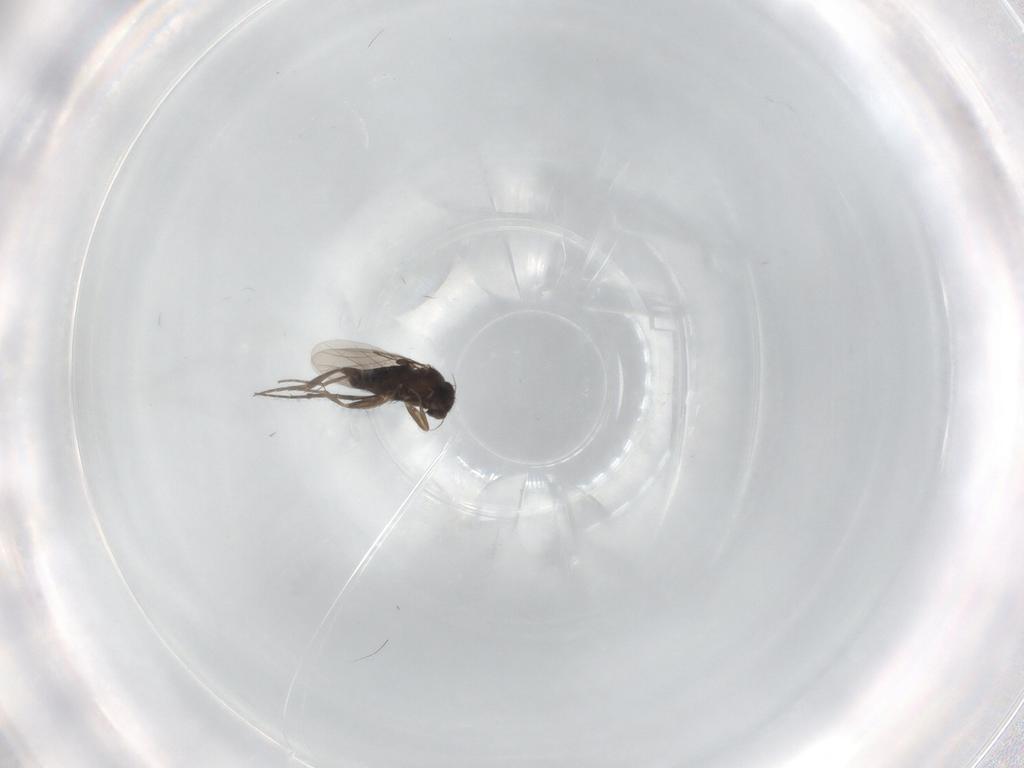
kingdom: Animalia
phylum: Arthropoda
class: Insecta
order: Diptera
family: Phoridae
